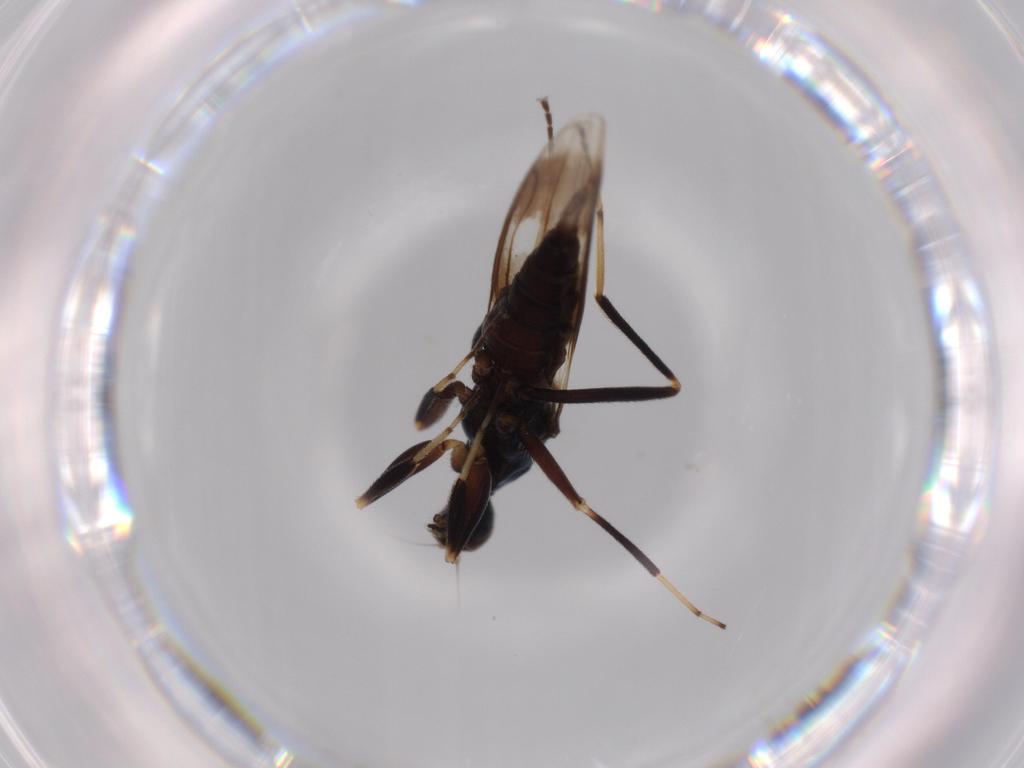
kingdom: Animalia
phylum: Arthropoda
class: Insecta
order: Diptera
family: Hybotidae
